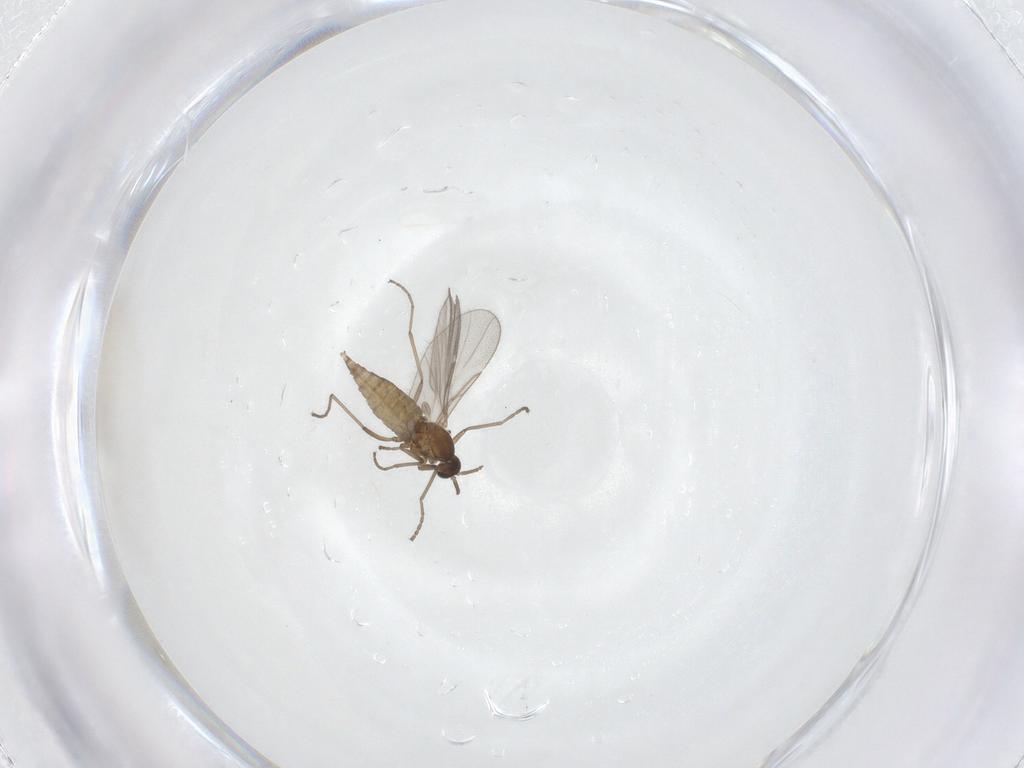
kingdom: Animalia
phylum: Arthropoda
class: Insecta
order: Diptera
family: Cecidomyiidae
